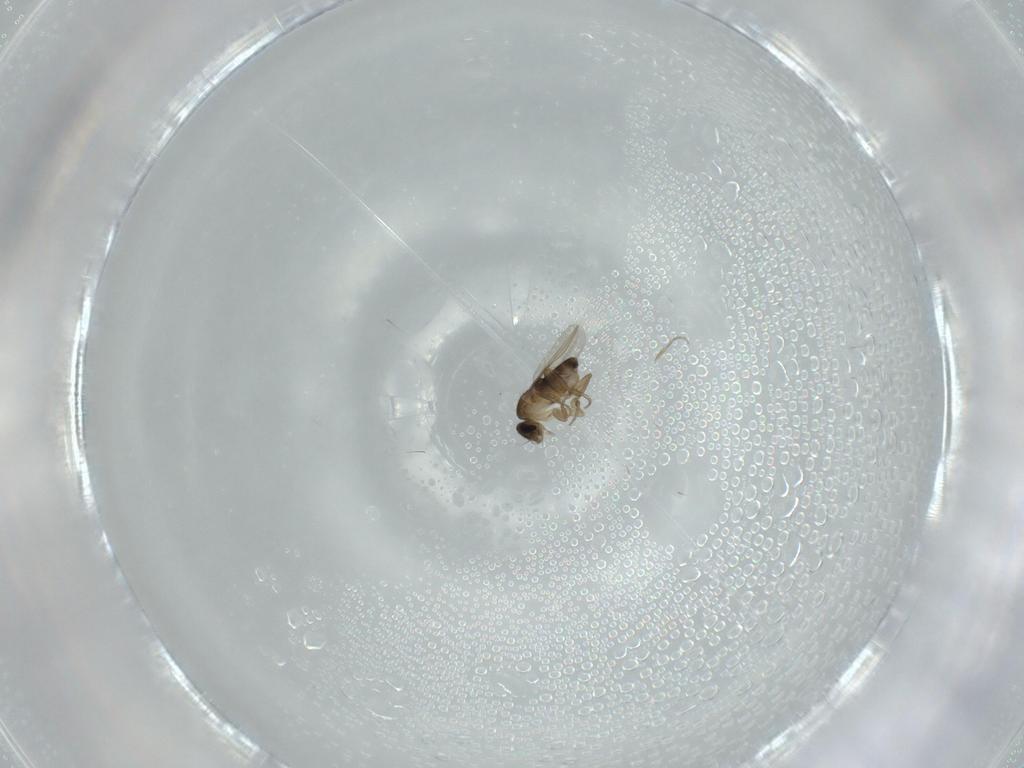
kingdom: Animalia
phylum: Arthropoda
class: Insecta
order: Diptera
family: Phoridae
